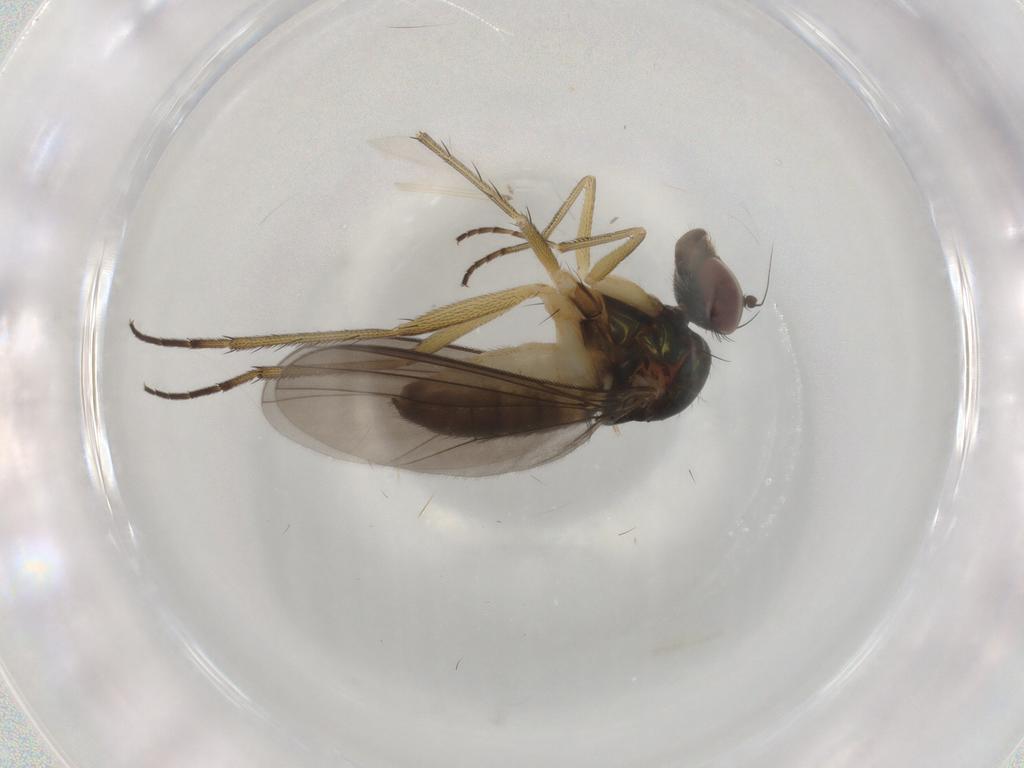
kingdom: Animalia
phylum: Arthropoda
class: Insecta
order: Diptera
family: Dolichopodidae
